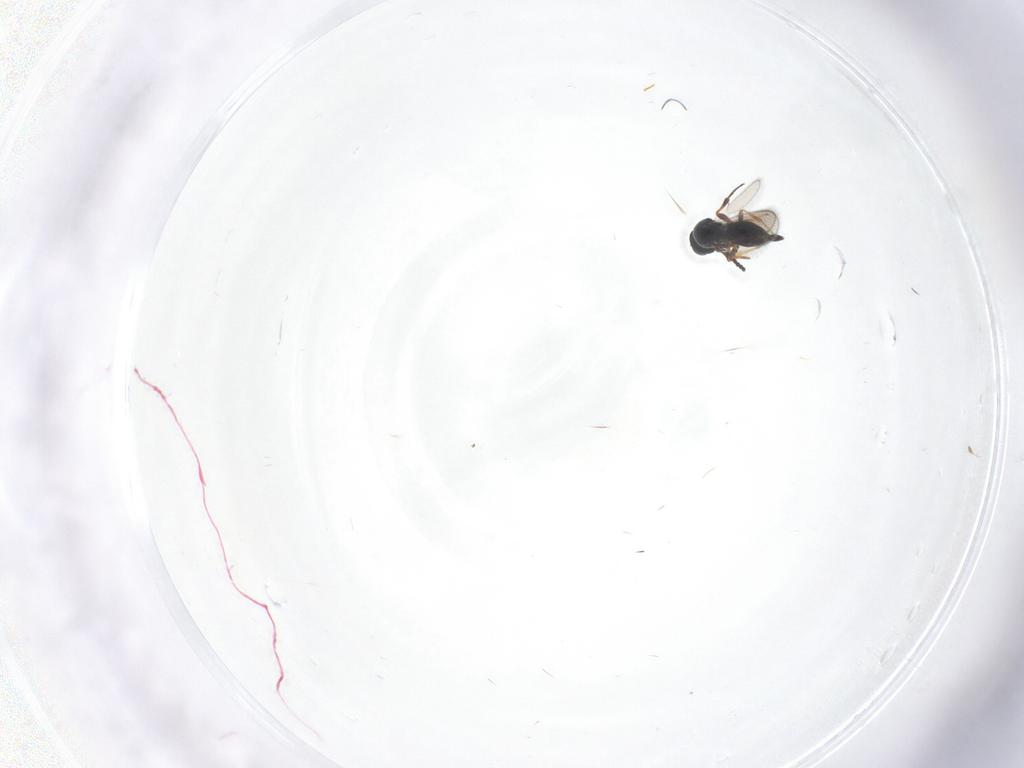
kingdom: Animalia
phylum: Arthropoda
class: Insecta
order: Hymenoptera
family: Platygastridae
